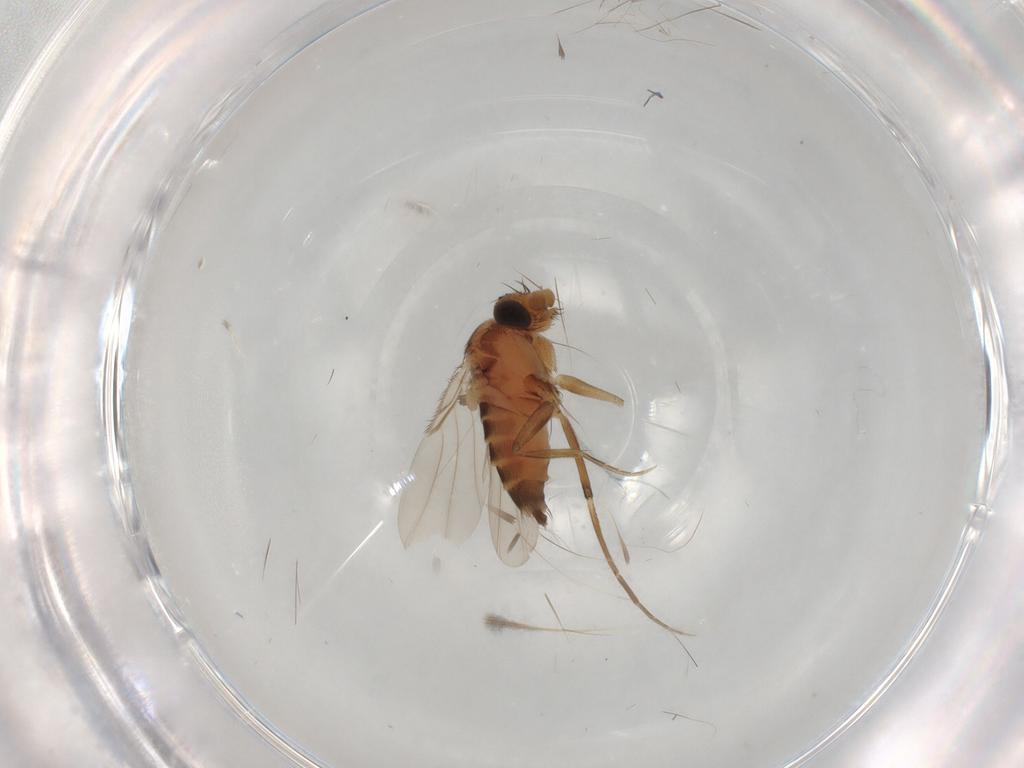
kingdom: Animalia
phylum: Arthropoda
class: Insecta
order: Diptera
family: Phoridae
